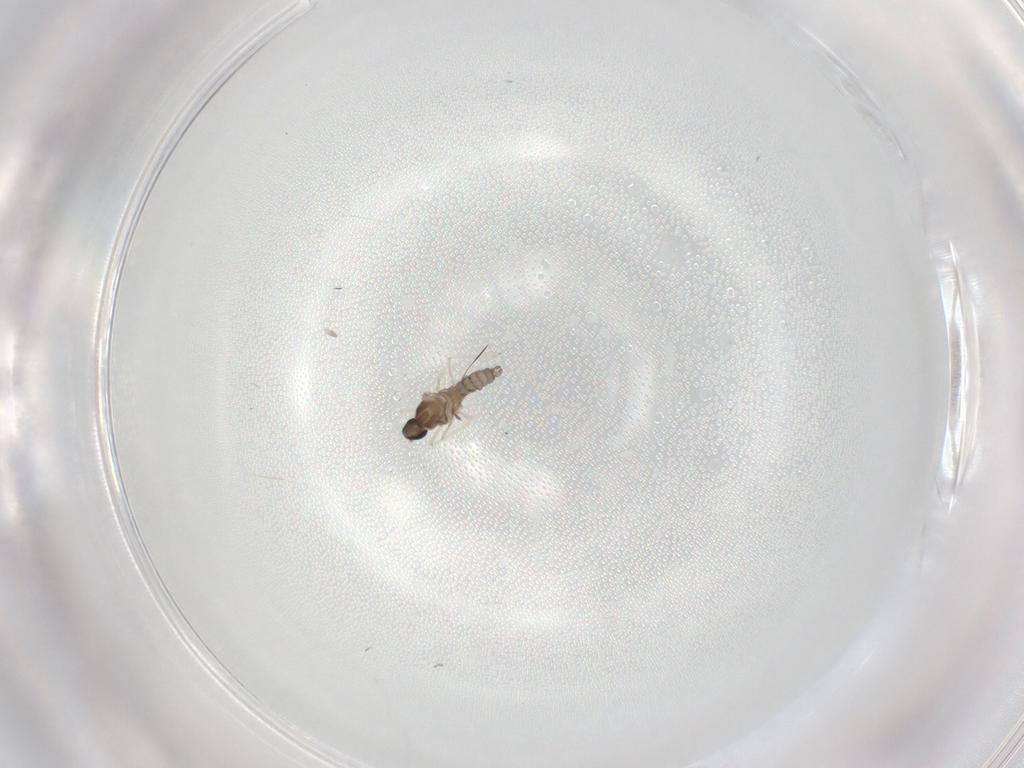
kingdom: Animalia
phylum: Arthropoda
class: Insecta
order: Diptera
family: Cecidomyiidae
